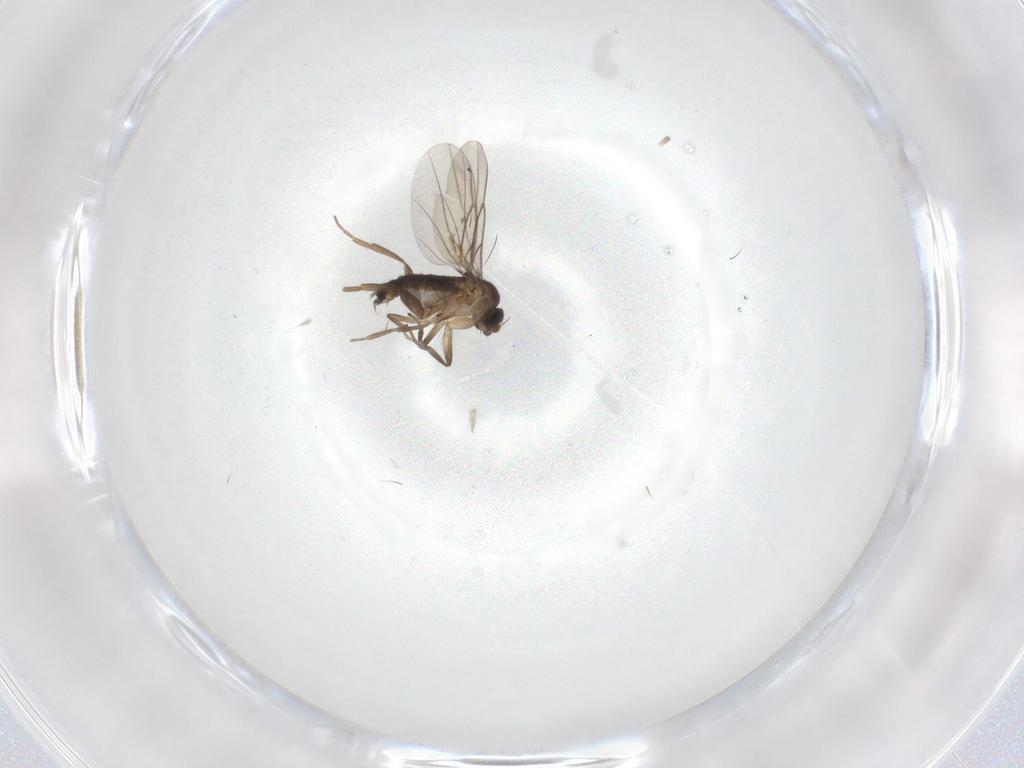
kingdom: Animalia
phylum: Arthropoda
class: Insecta
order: Diptera
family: Phoridae
